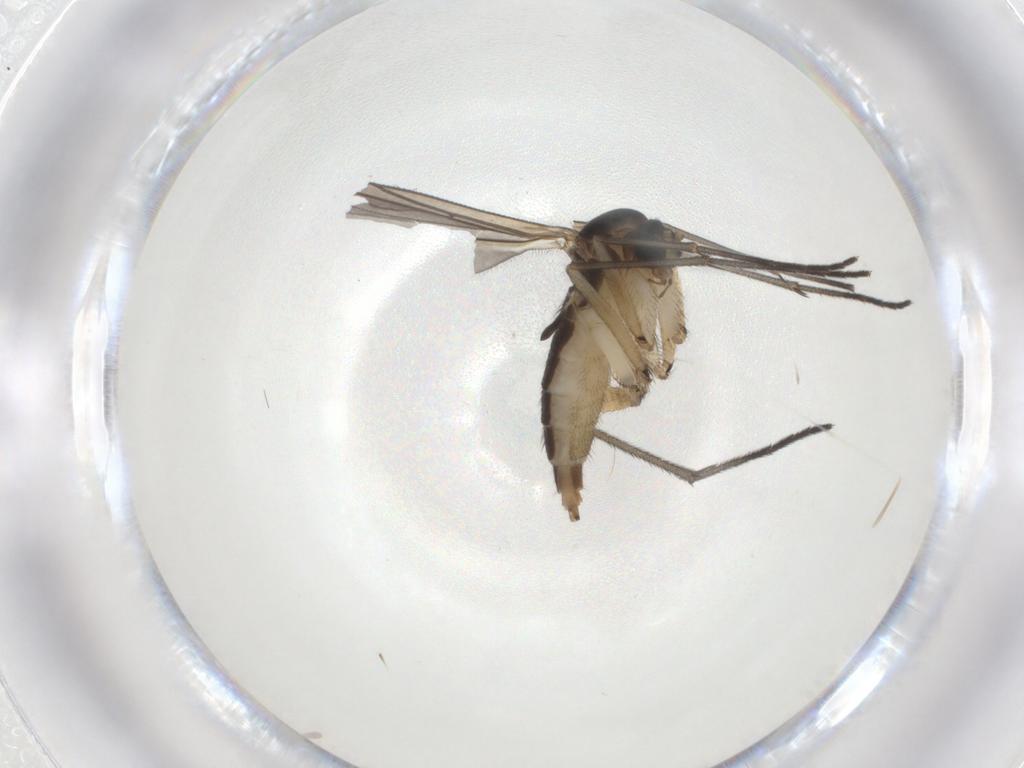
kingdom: Animalia
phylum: Arthropoda
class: Insecta
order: Diptera
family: Sciaridae
